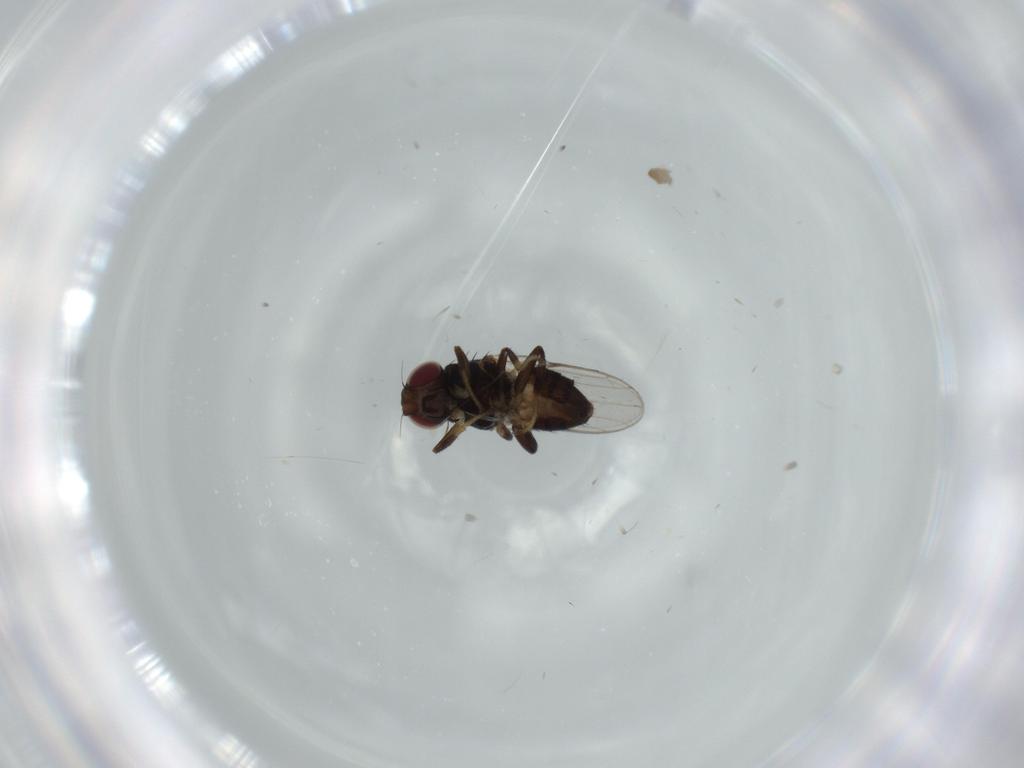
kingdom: Animalia
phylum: Arthropoda
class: Insecta
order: Diptera
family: Chloropidae
